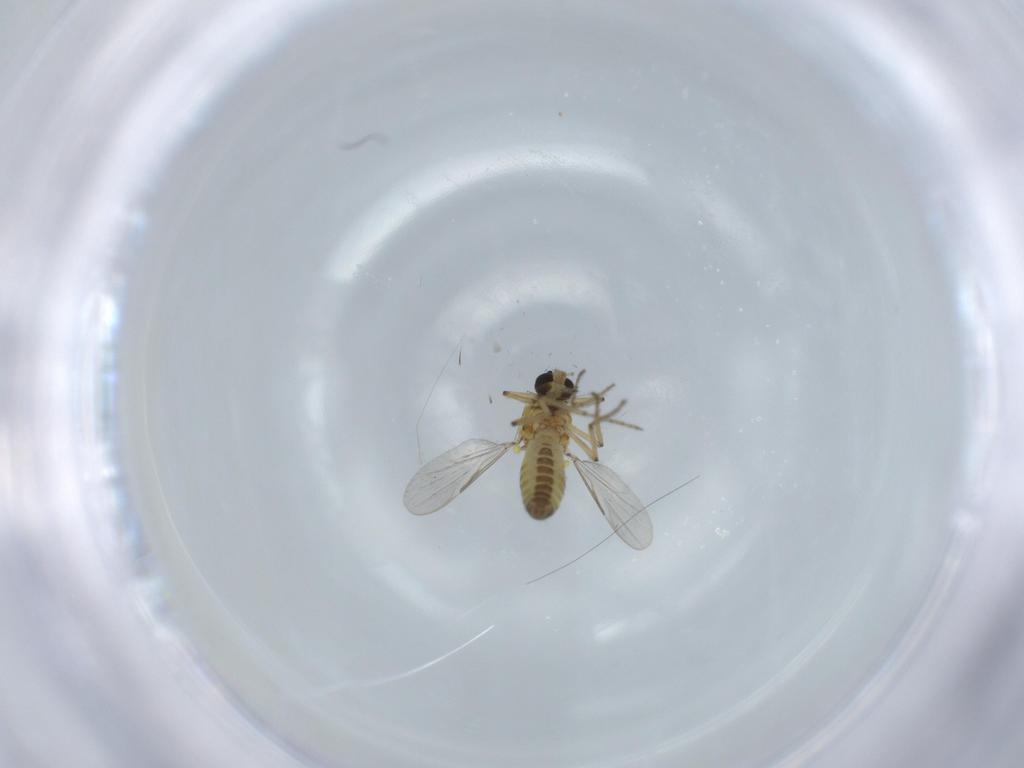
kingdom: Animalia
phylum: Arthropoda
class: Insecta
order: Diptera
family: Ceratopogonidae
